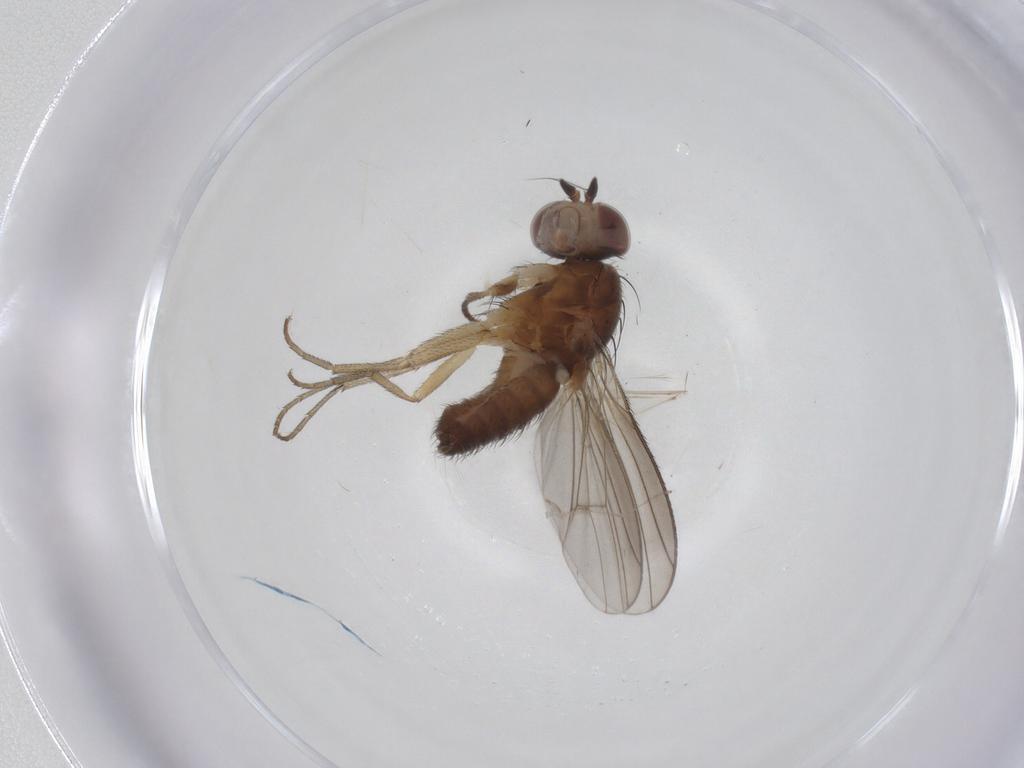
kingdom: Animalia
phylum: Arthropoda
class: Insecta
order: Diptera
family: Heleomyzidae
